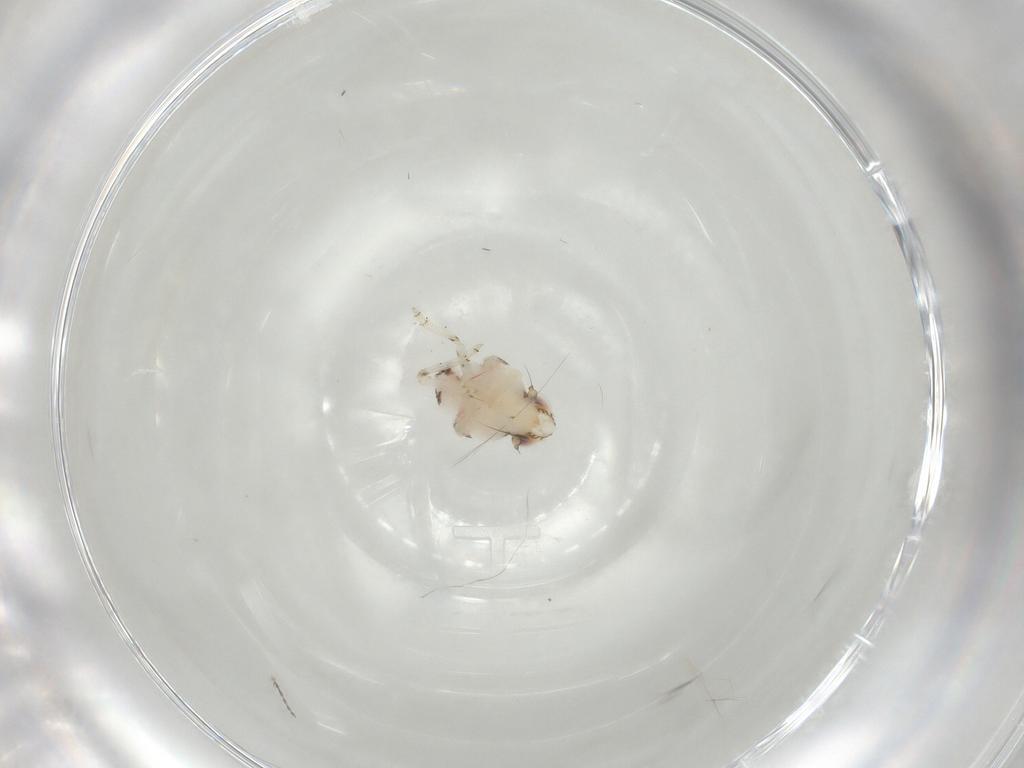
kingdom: Animalia
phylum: Arthropoda
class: Insecta
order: Hemiptera
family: Nogodinidae
